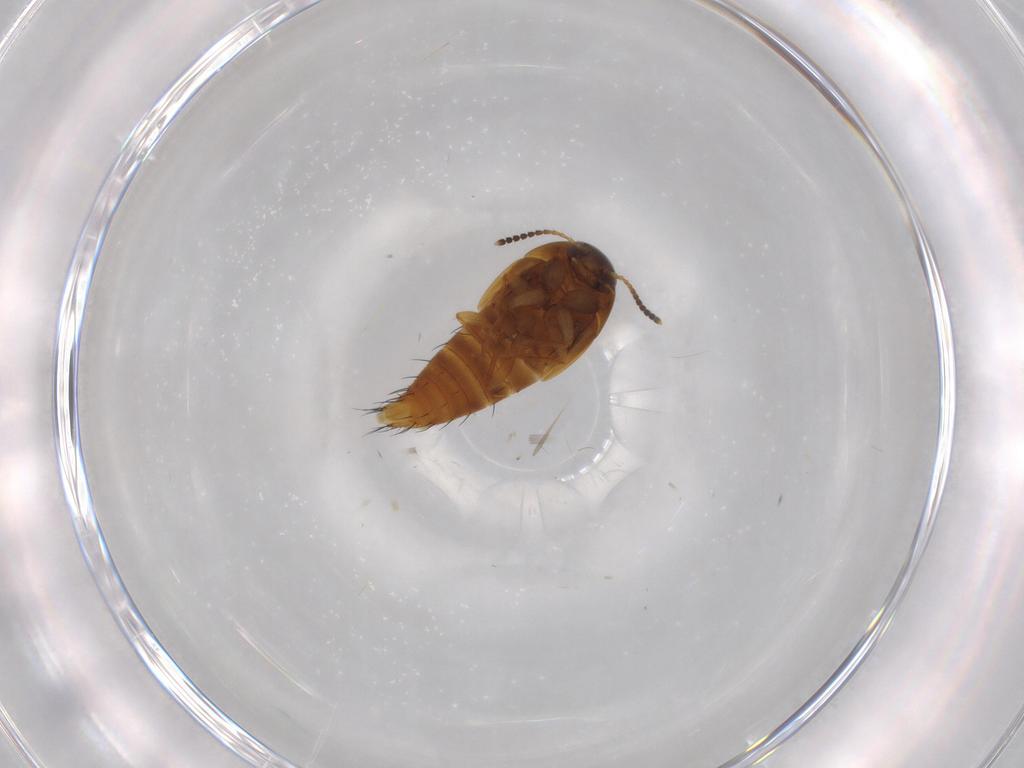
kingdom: Animalia
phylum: Arthropoda
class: Insecta
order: Coleoptera
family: Staphylinidae
